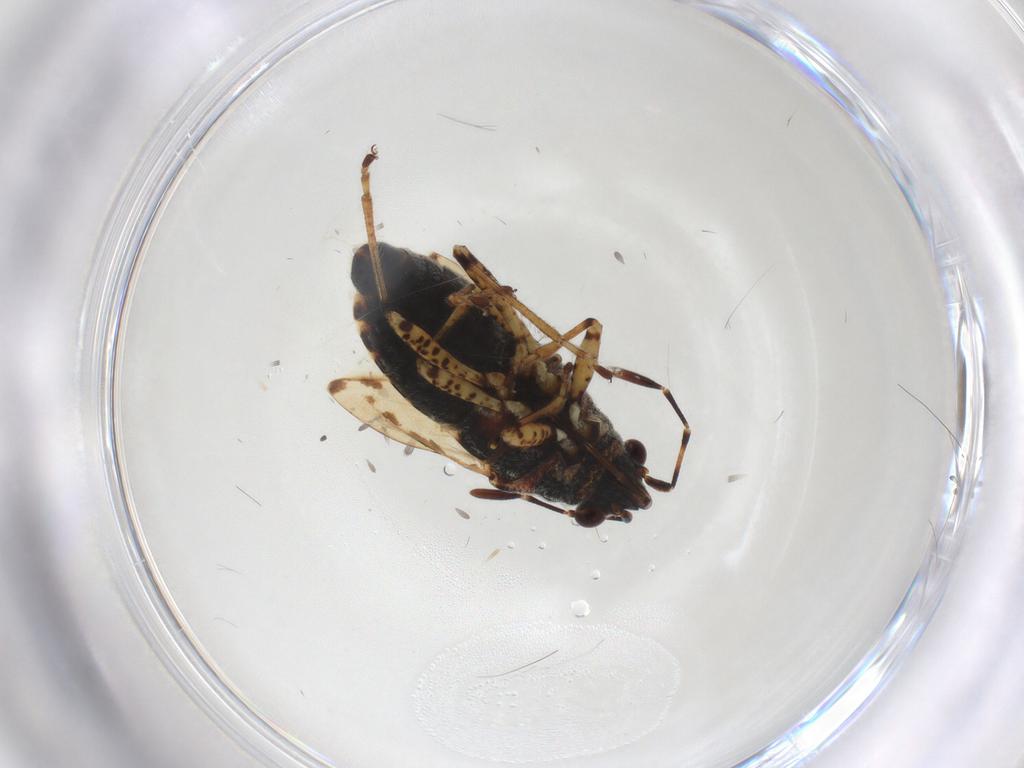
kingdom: Animalia
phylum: Arthropoda
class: Insecta
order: Hemiptera
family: Lygaeidae
